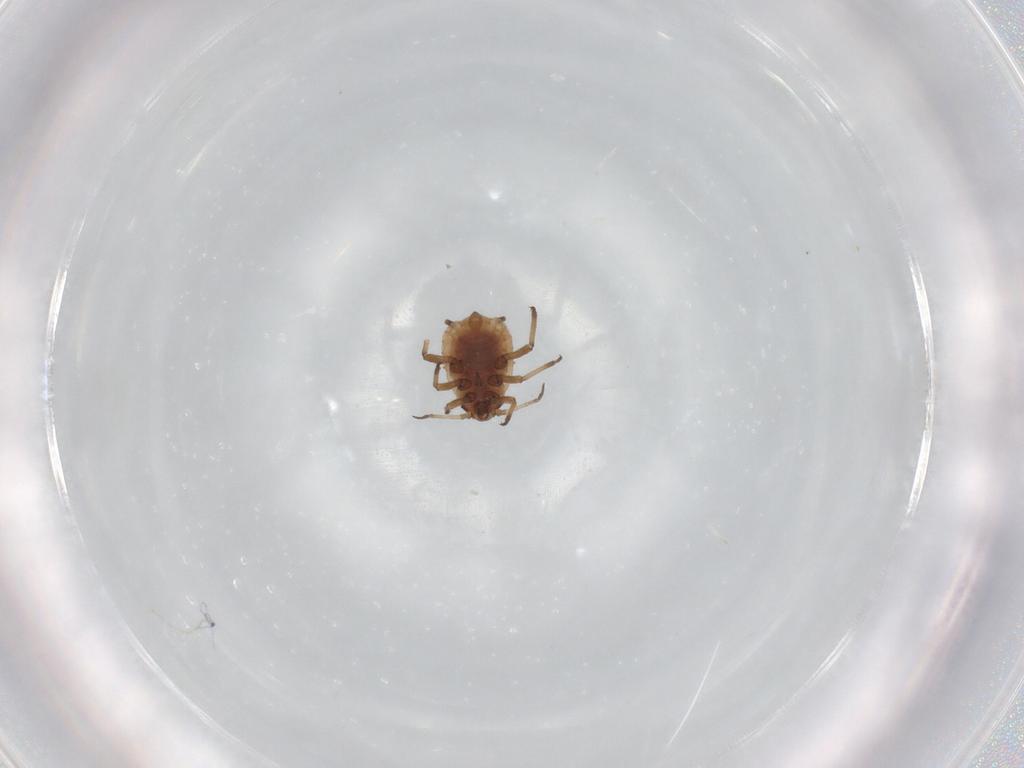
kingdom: Animalia
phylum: Arthropoda
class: Insecta
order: Hemiptera
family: Aphididae
